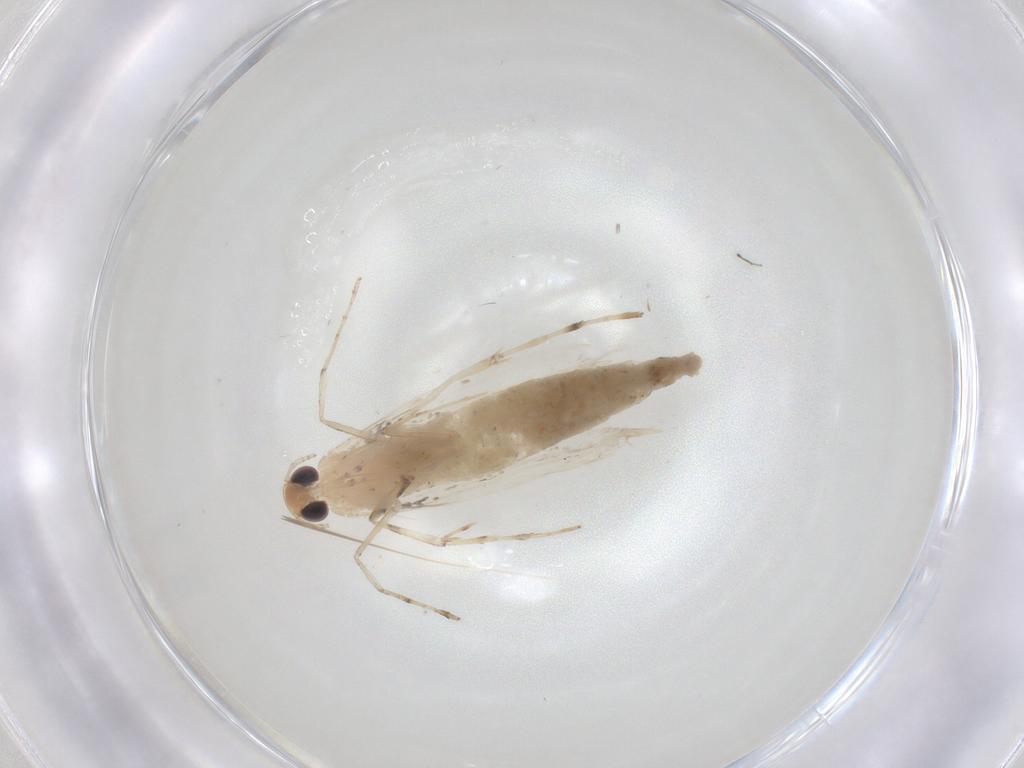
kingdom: Animalia
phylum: Arthropoda
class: Insecta
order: Lepidoptera
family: Gracillariidae
